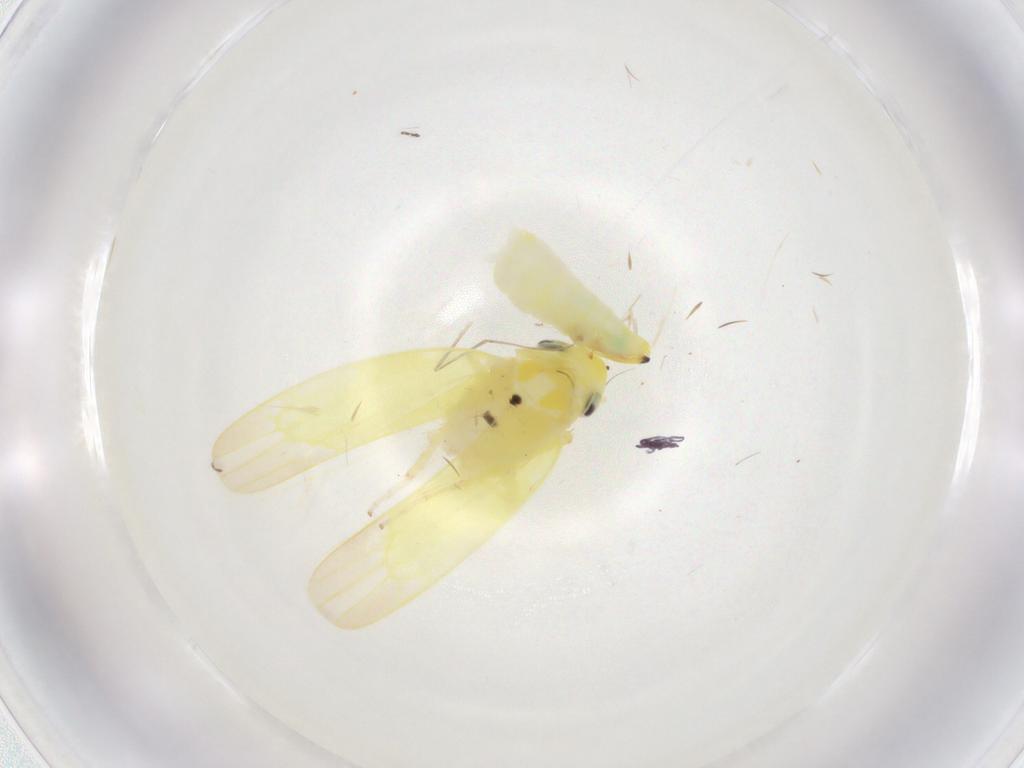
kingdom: Animalia
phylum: Arthropoda
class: Insecta
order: Hemiptera
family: Cicadellidae
